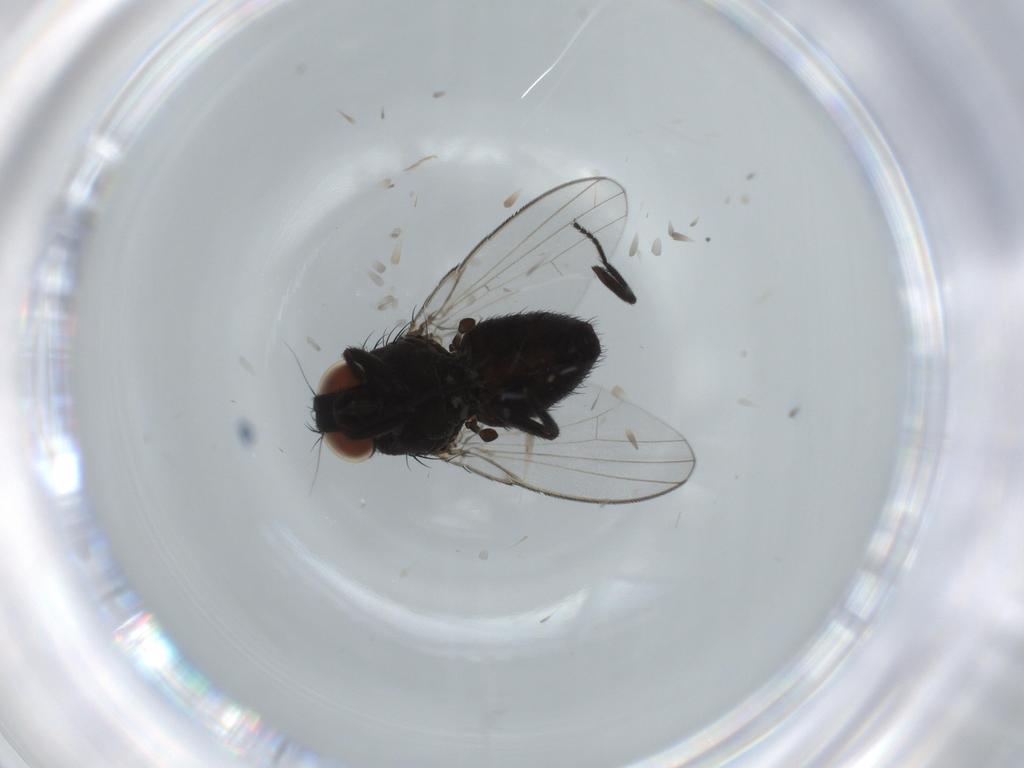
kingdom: Animalia
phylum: Arthropoda
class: Insecta
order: Diptera
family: Milichiidae
